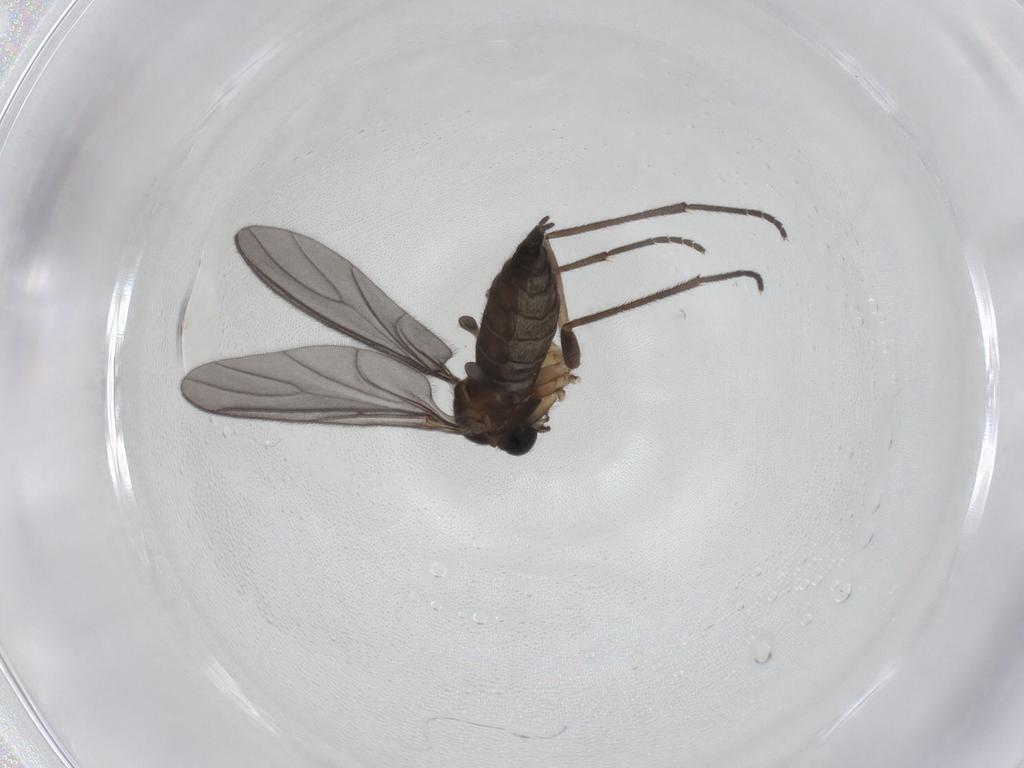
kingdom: Animalia
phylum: Arthropoda
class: Insecta
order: Diptera
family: Sciaridae
